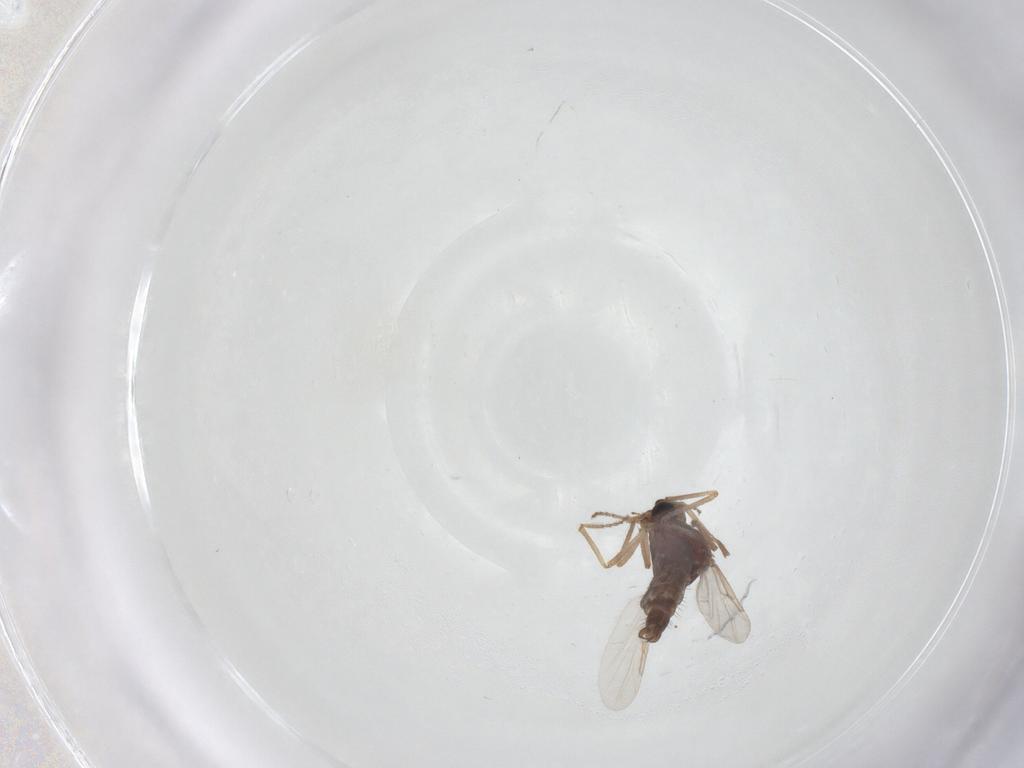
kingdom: Animalia
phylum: Arthropoda
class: Insecta
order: Diptera
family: Ceratopogonidae
